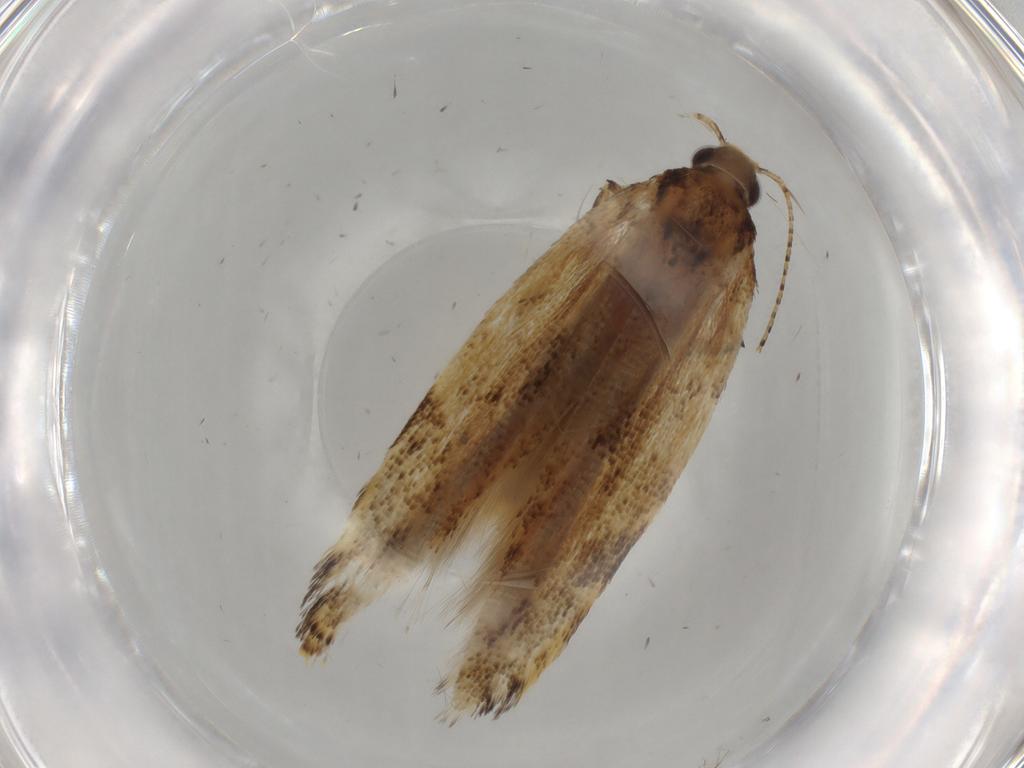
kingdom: Animalia
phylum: Arthropoda
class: Insecta
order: Lepidoptera
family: Gelechiidae
